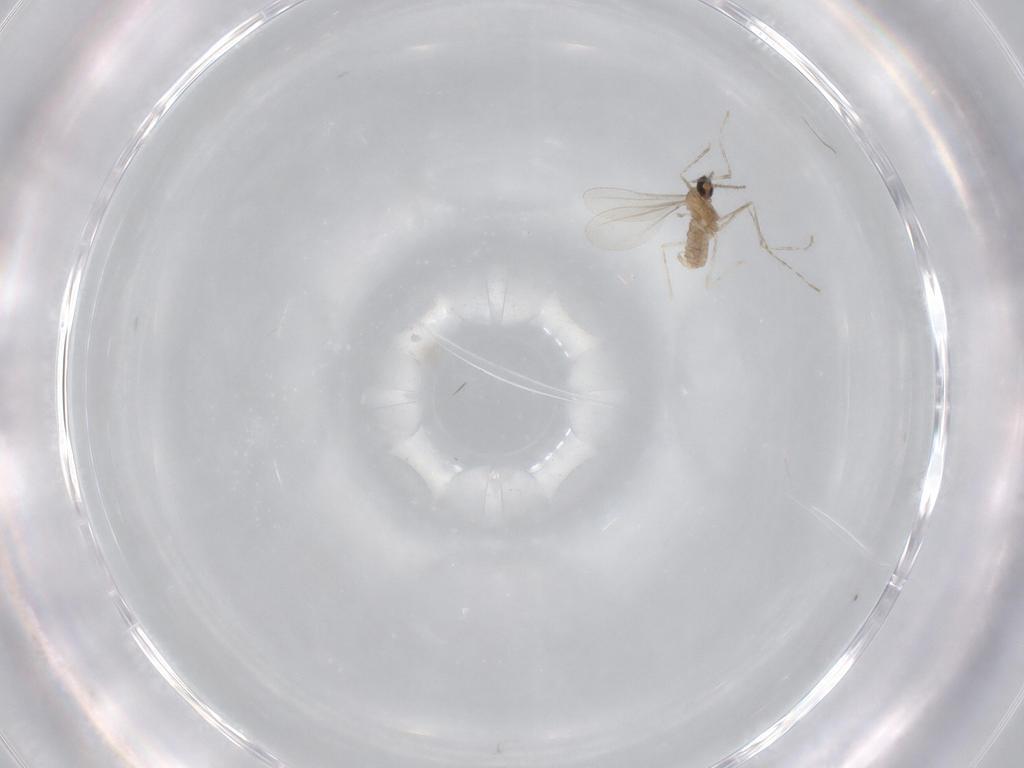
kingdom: Animalia
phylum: Arthropoda
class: Insecta
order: Diptera
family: Cecidomyiidae
